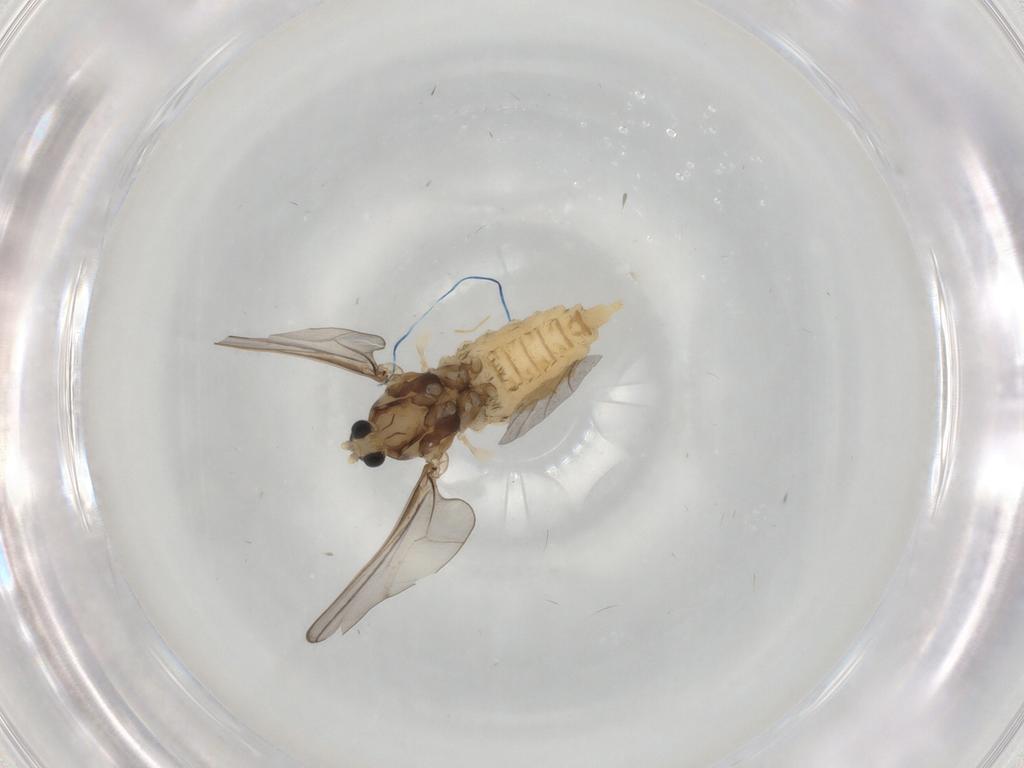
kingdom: Animalia
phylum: Arthropoda
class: Insecta
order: Diptera
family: Cecidomyiidae
